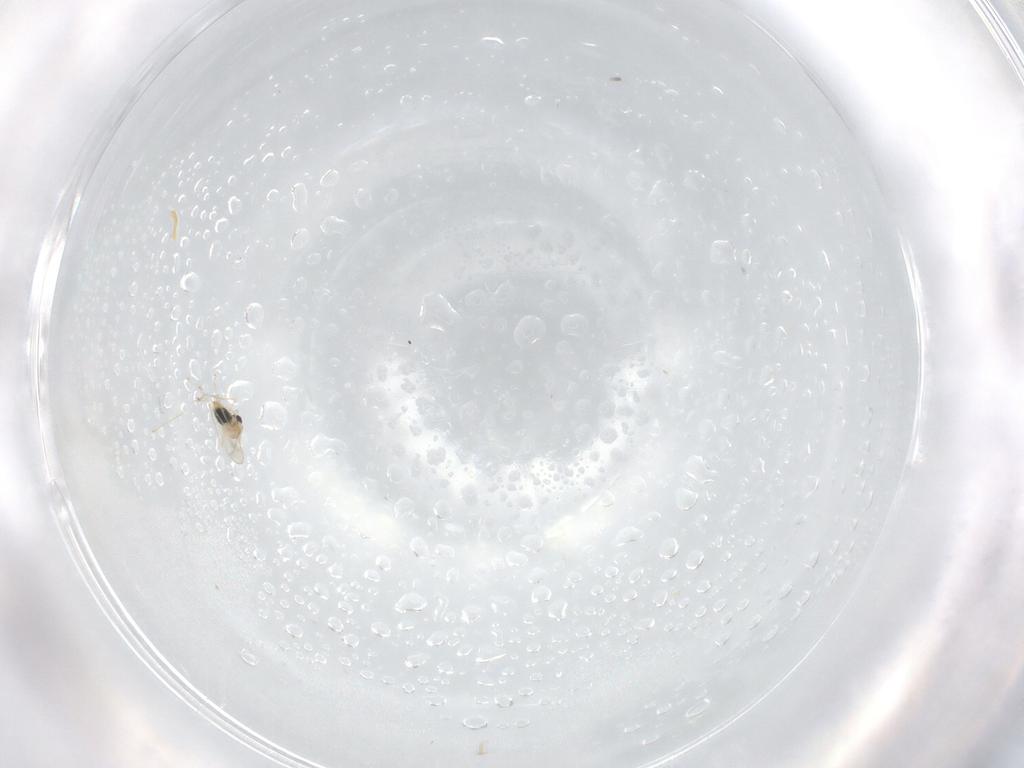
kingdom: Animalia
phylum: Arthropoda
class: Insecta
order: Diptera
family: Cecidomyiidae
